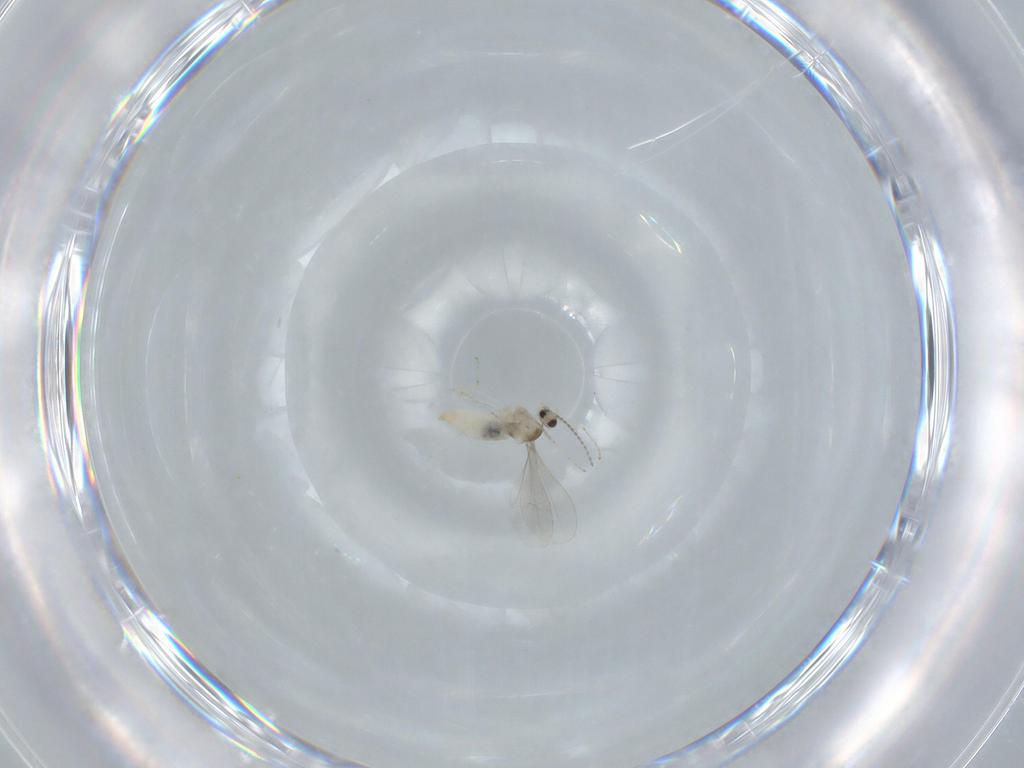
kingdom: Animalia
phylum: Arthropoda
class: Insecta
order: Diptera
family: Cecidomyiidae
